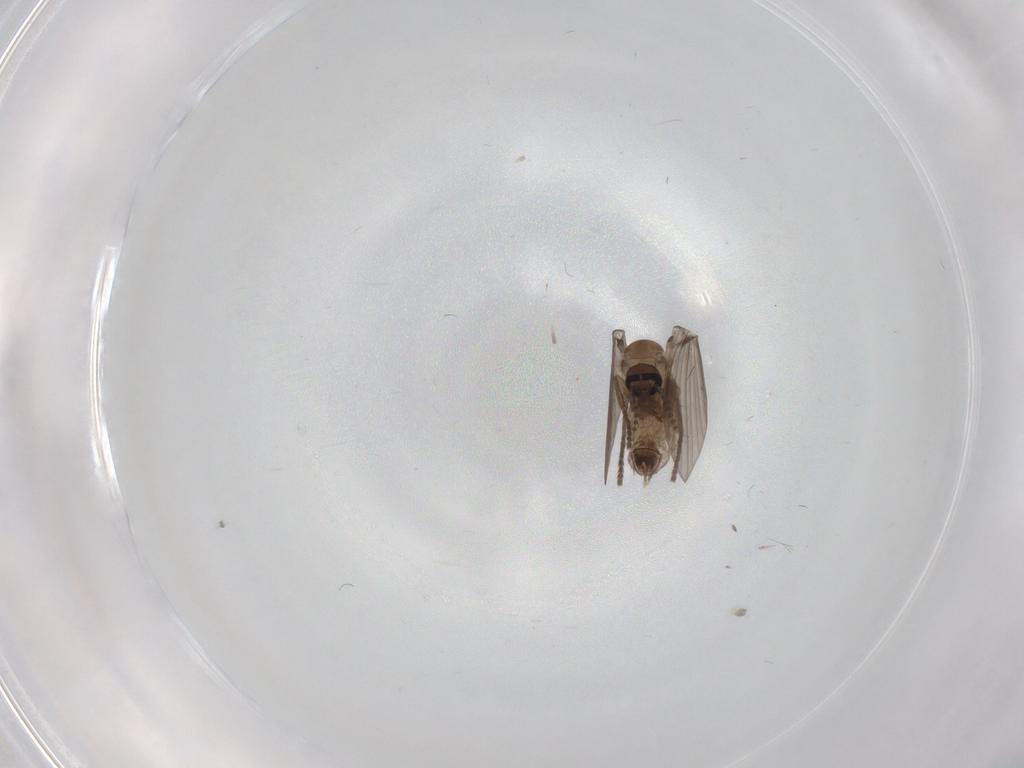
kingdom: Animalia
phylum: Arthropoda
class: Insecta
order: Diptera
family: Psychodidae
